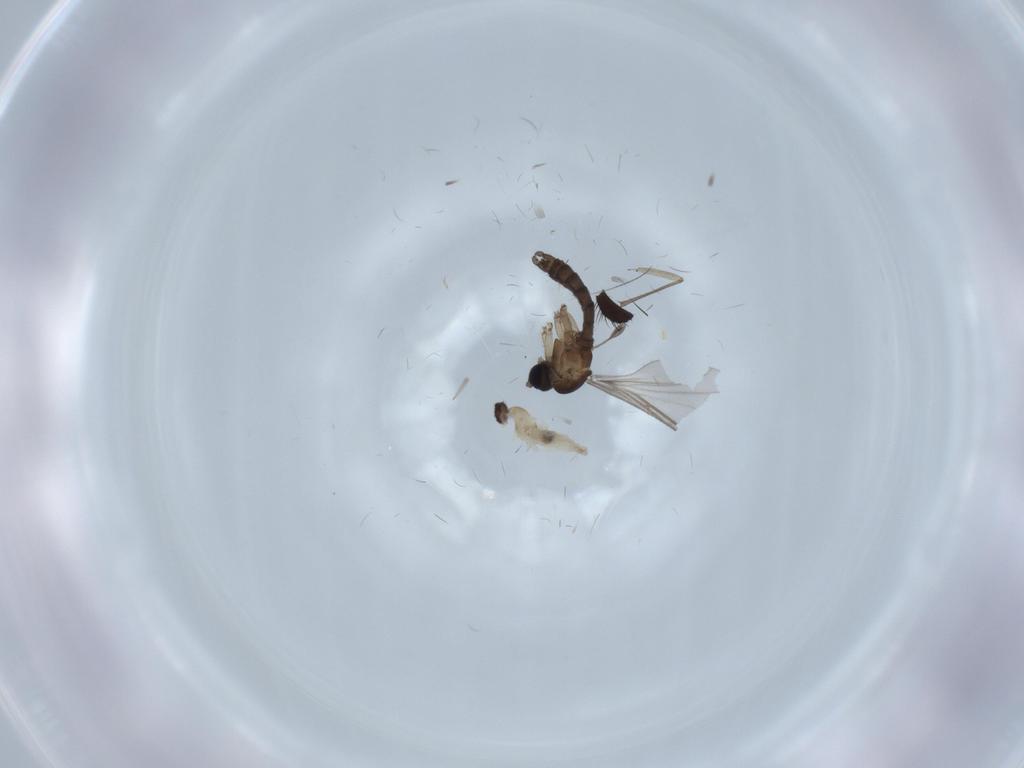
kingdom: Animalia
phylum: Arthropoda
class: Insecta
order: Diptera
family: Sciaridae
